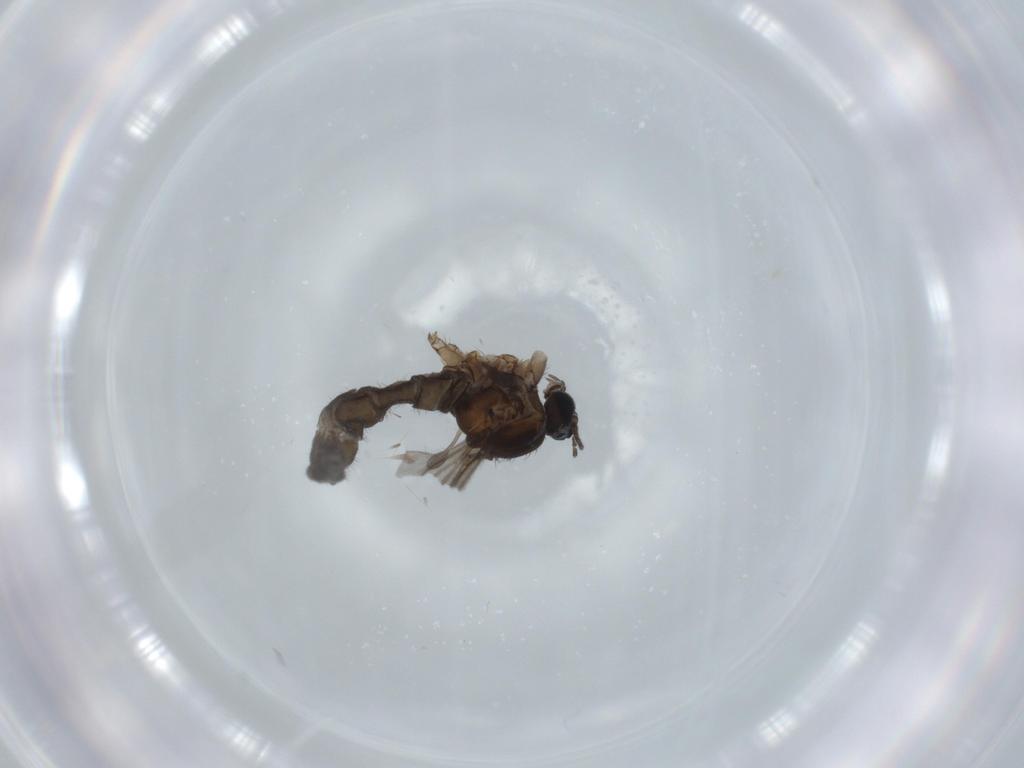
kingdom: Animalia
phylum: Arthropoda
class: Insecta
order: Diptera
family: Sciaridae
